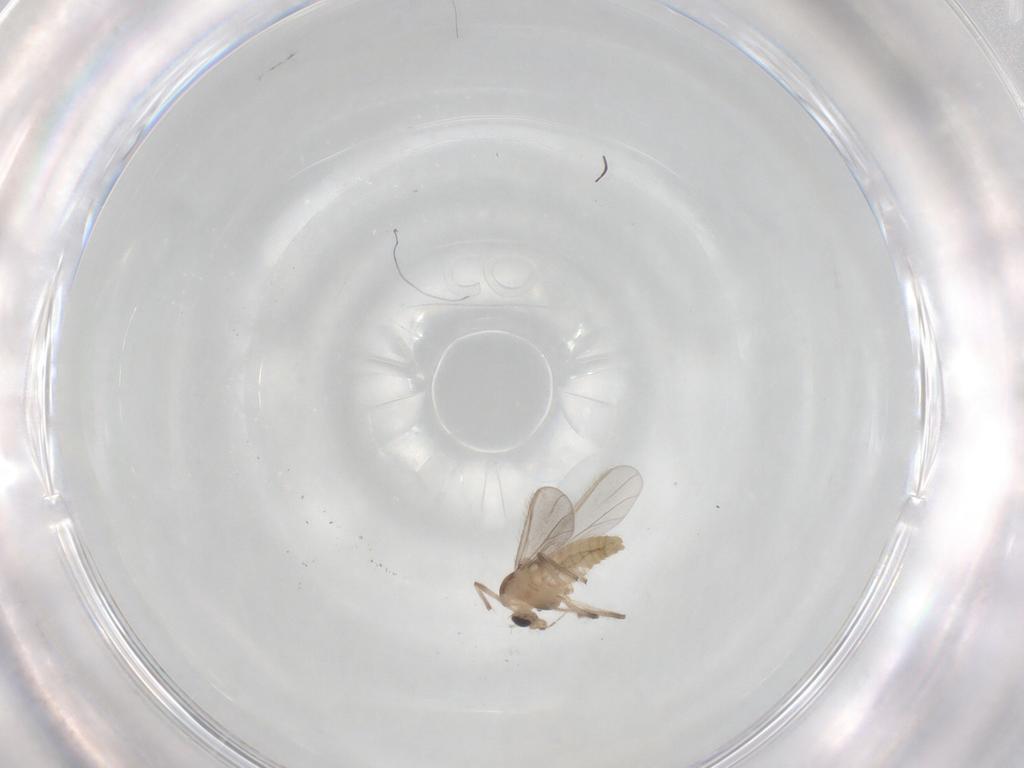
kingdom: Animalia
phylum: Arthropoda
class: Insecta
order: Diptera
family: Chironomidae
